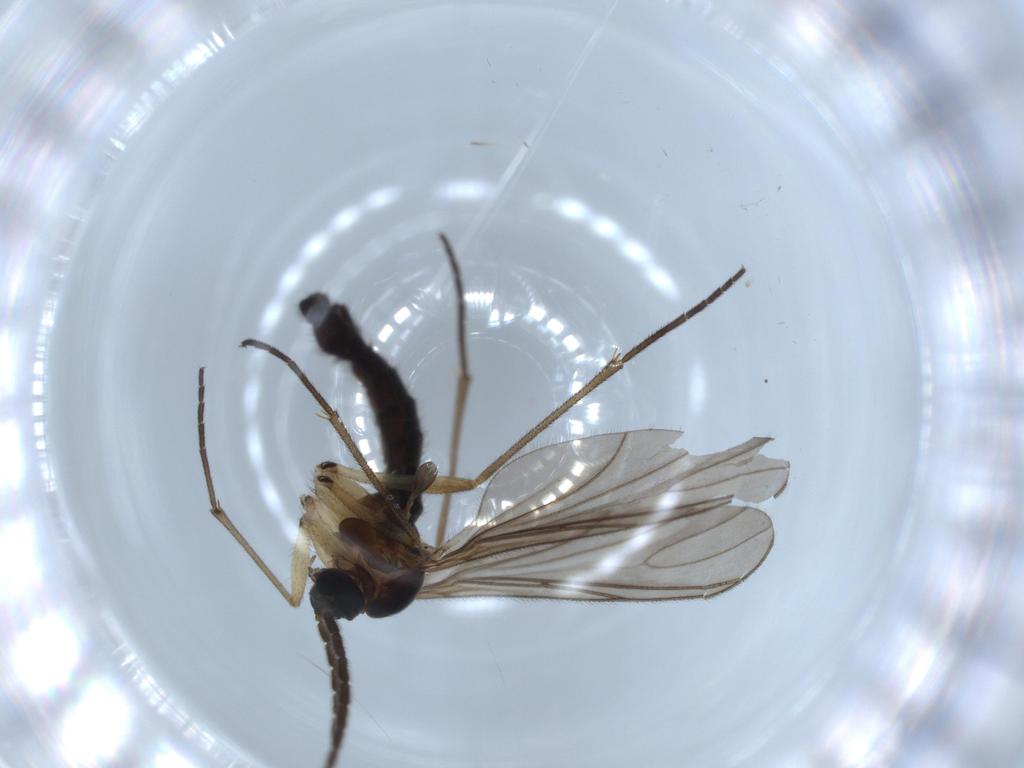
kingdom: Animalia
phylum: Arthropoda
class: Insecta
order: Diptera
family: Sciaridae
